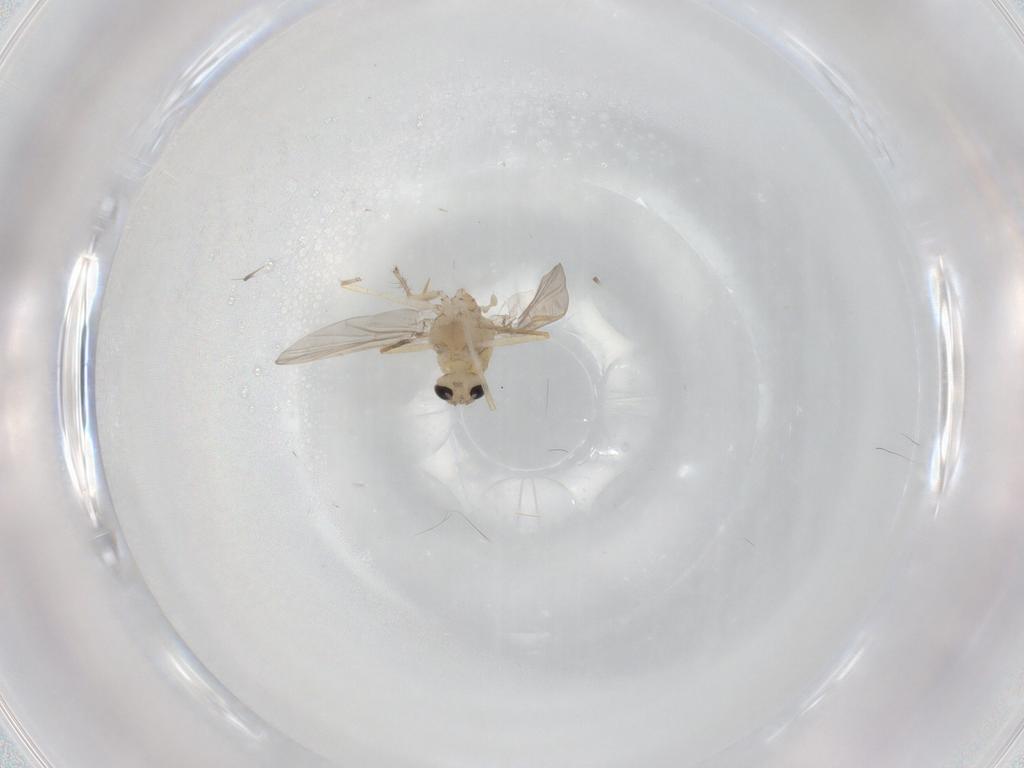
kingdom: Animalia
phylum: Arthropoda
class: Insecta
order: Diptera
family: Chironomidae
